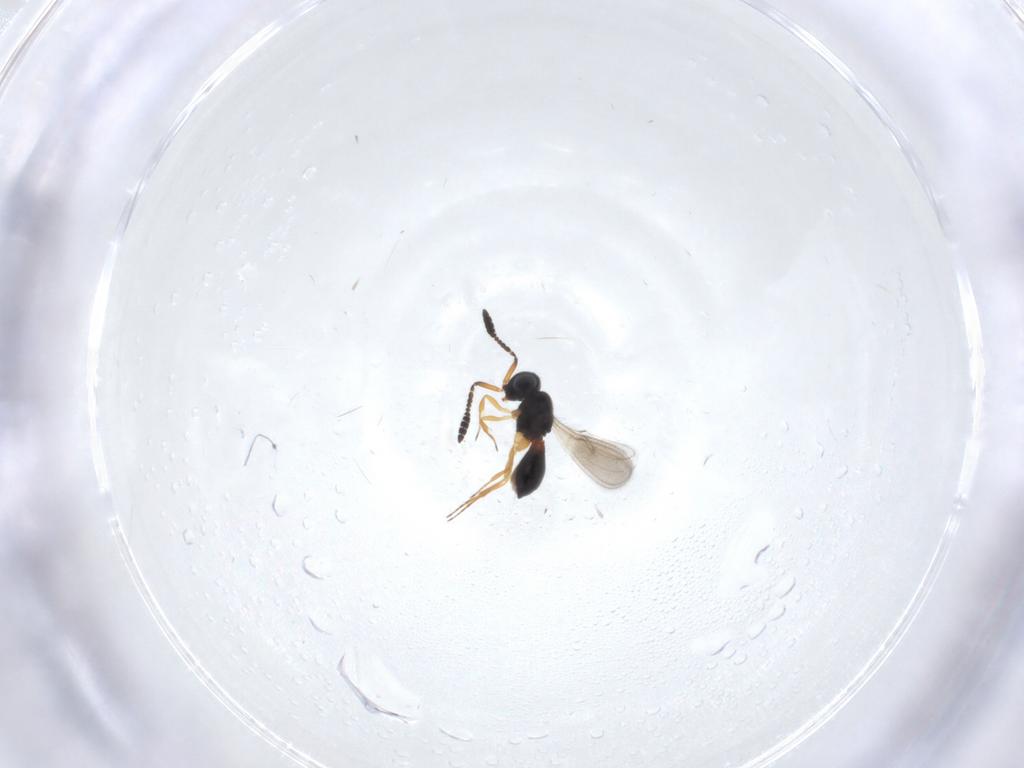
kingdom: Animalia
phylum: Arthropoda
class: Insecta
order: Hymenoptera
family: Scelionidae
